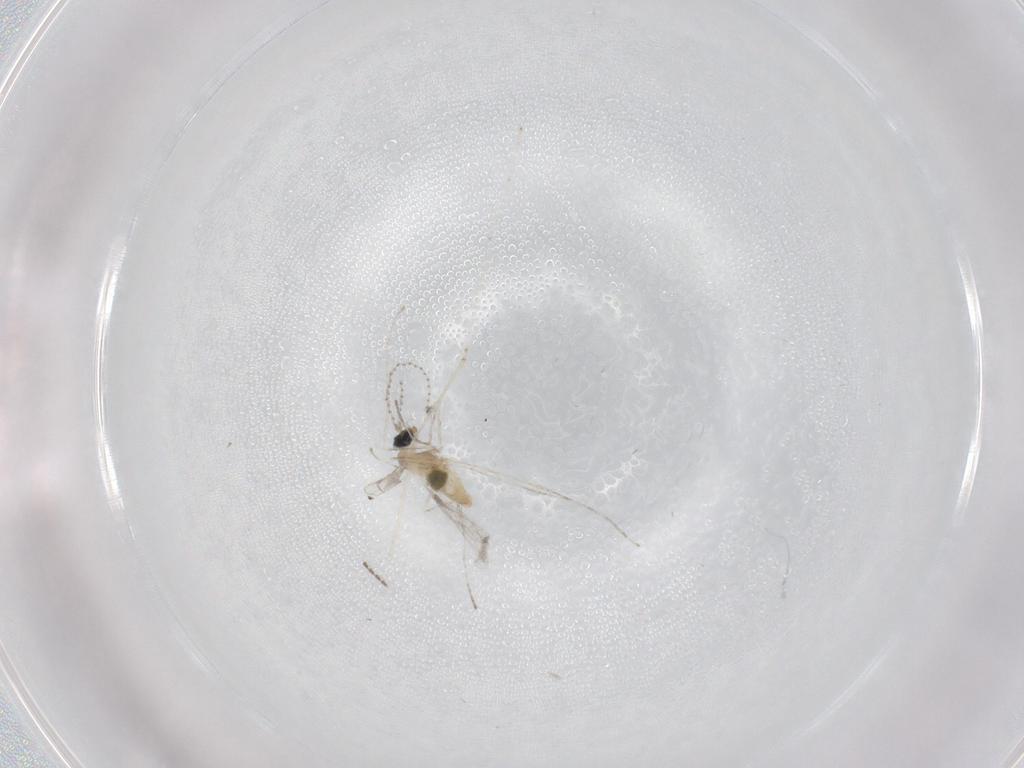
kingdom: Animalia
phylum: Arthropoda
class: Insecta
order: Diptera
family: Cecidomyiidae
